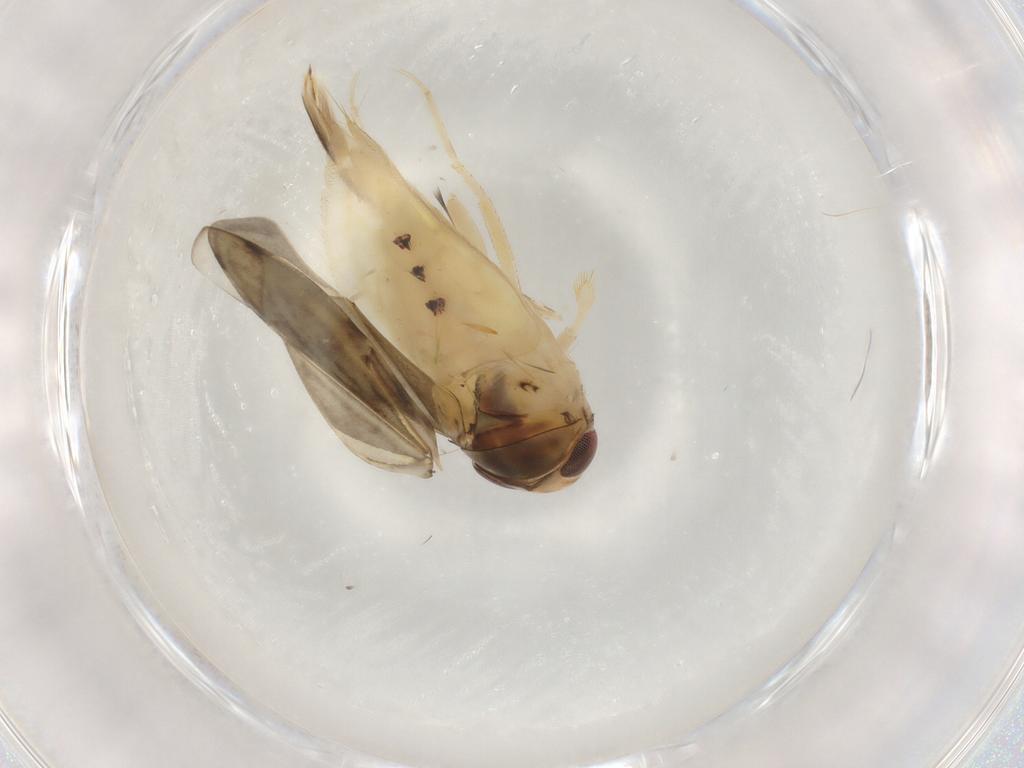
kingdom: Animalia
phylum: Arthropoda
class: Insecta
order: Hemiptera
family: Corixidae
